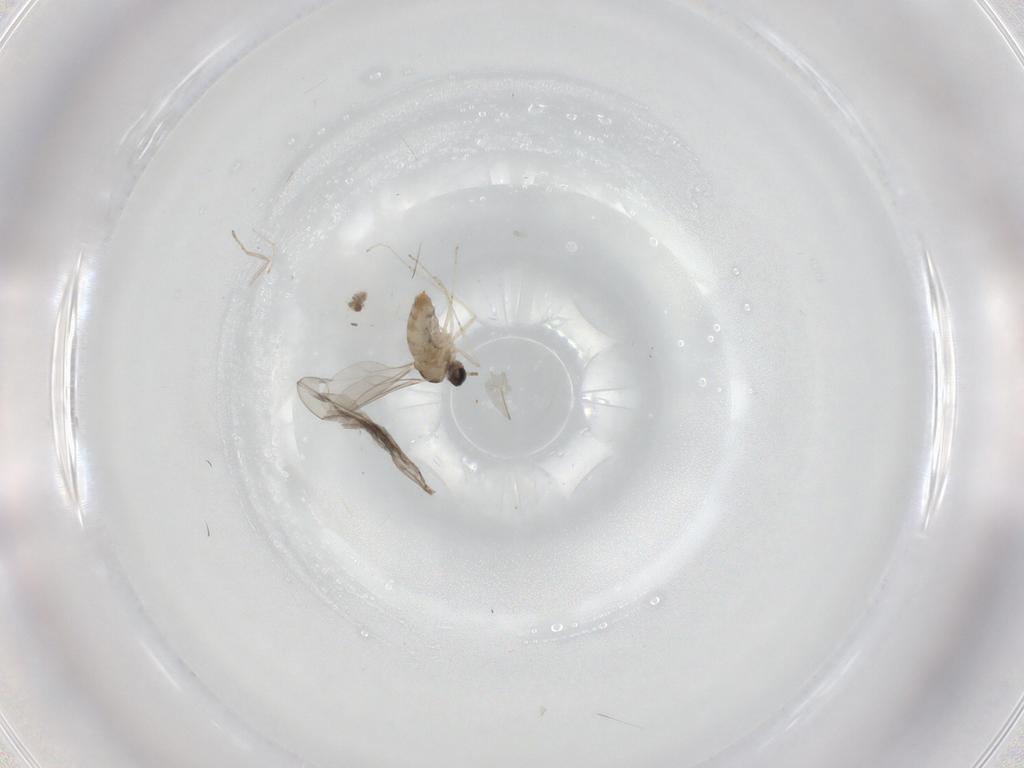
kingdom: Animalia
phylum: Arthropoda
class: Insecta
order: Diptera
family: Cecidomyiidae
